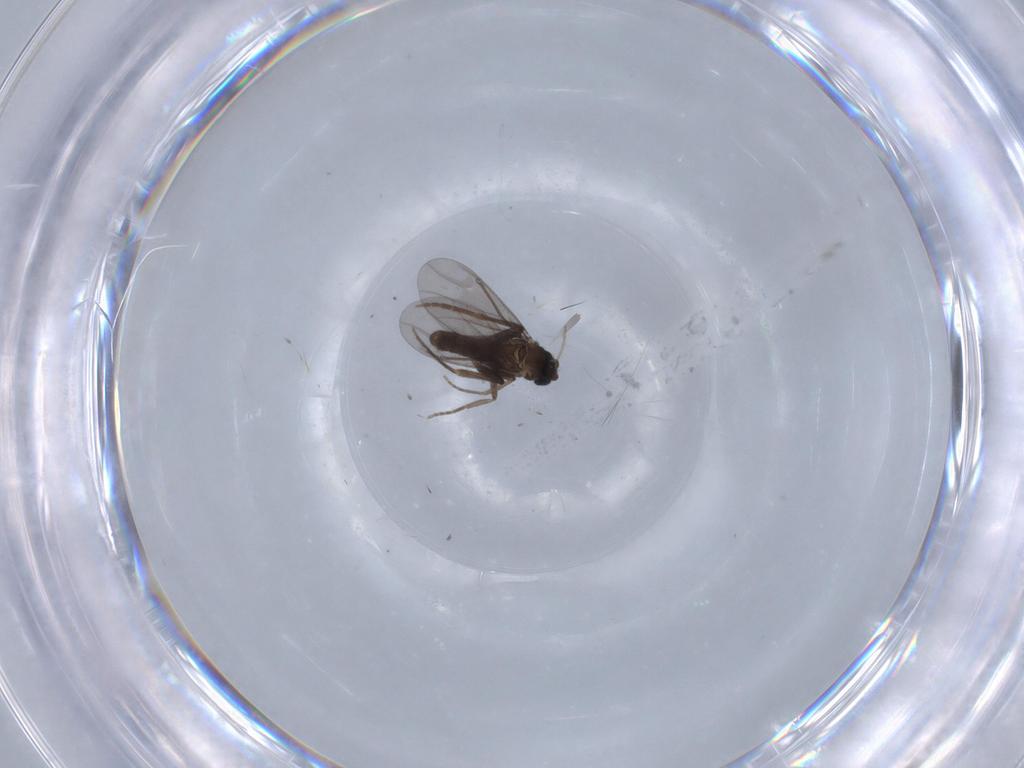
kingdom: Animalia
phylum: Arthropoda
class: Insecta
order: Diptera
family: Chironomidae
